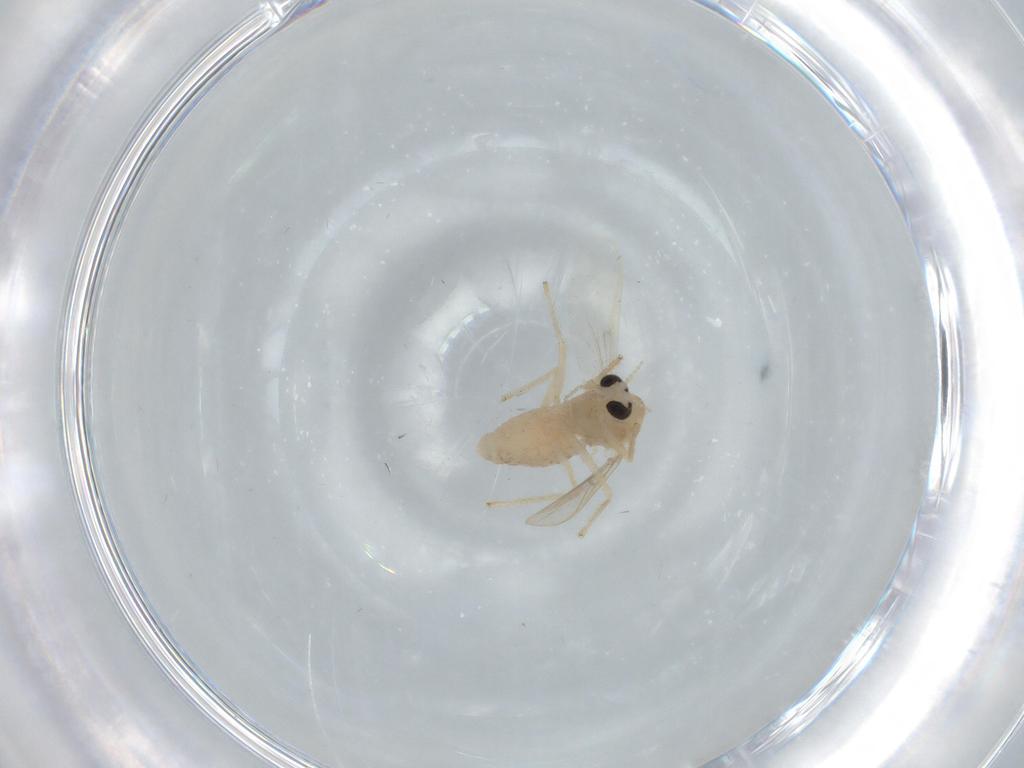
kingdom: Animalia
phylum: Arthropoda
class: Insecta
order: Diptera
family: Chironomidae
